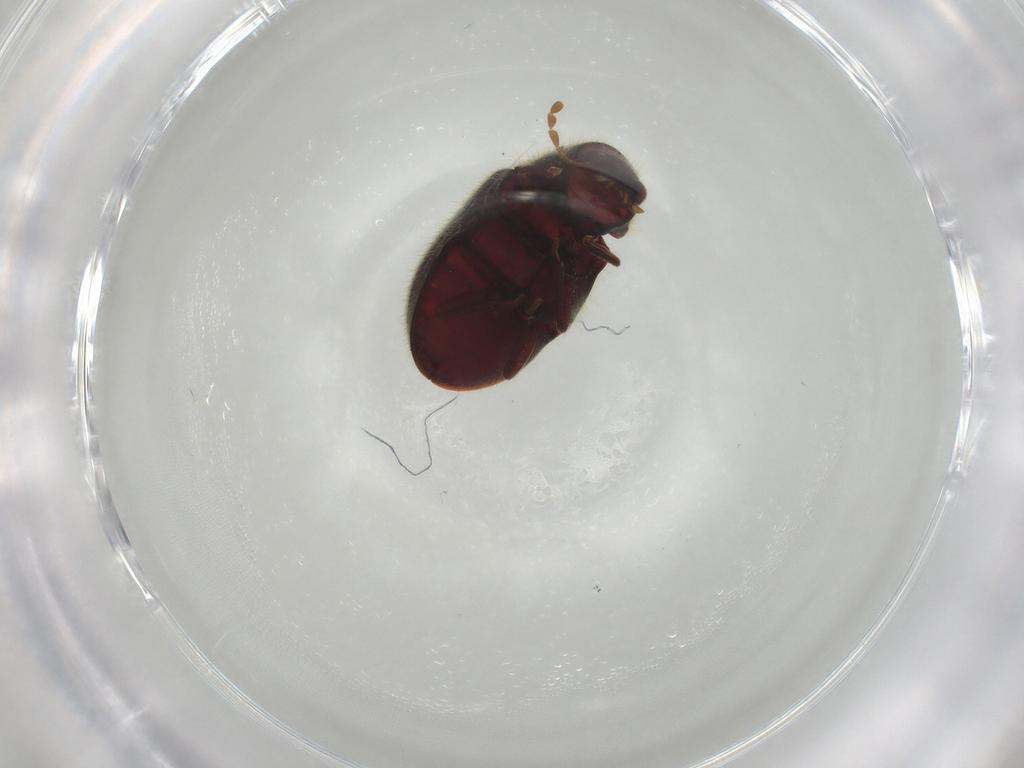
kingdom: Animalia
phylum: Arthropoda
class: Insecta
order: Coleoptera
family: Ptinidae
